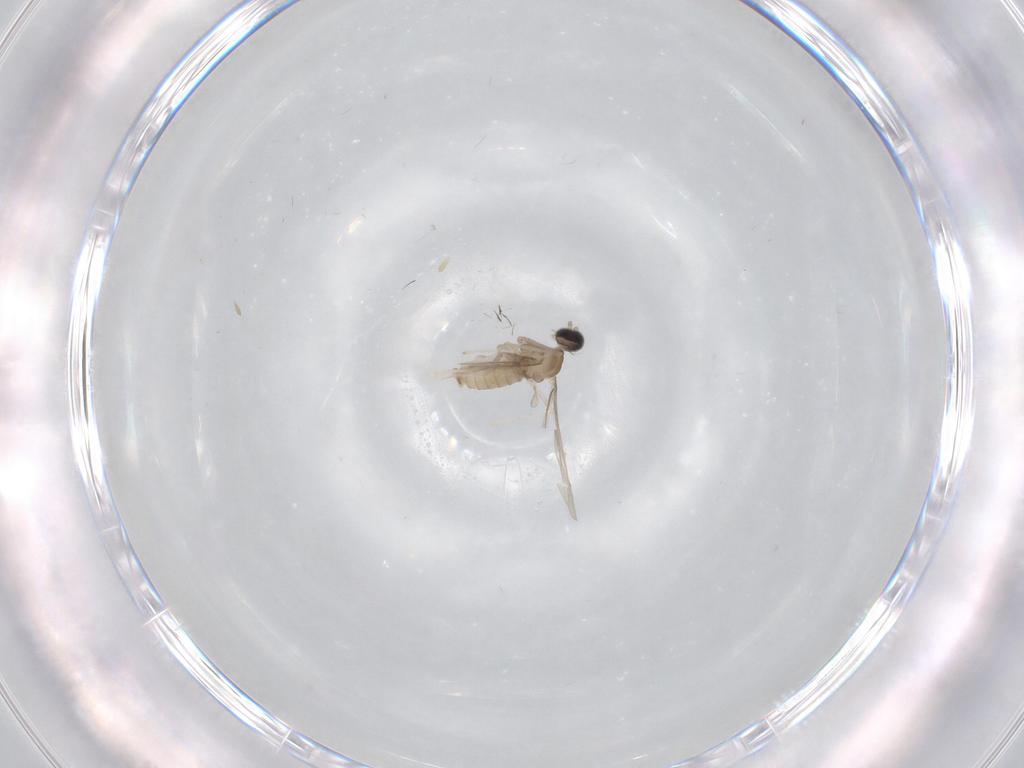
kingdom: Animalia
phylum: Arthropoda
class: Insecta
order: Diptera
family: Cecidomyiidae
